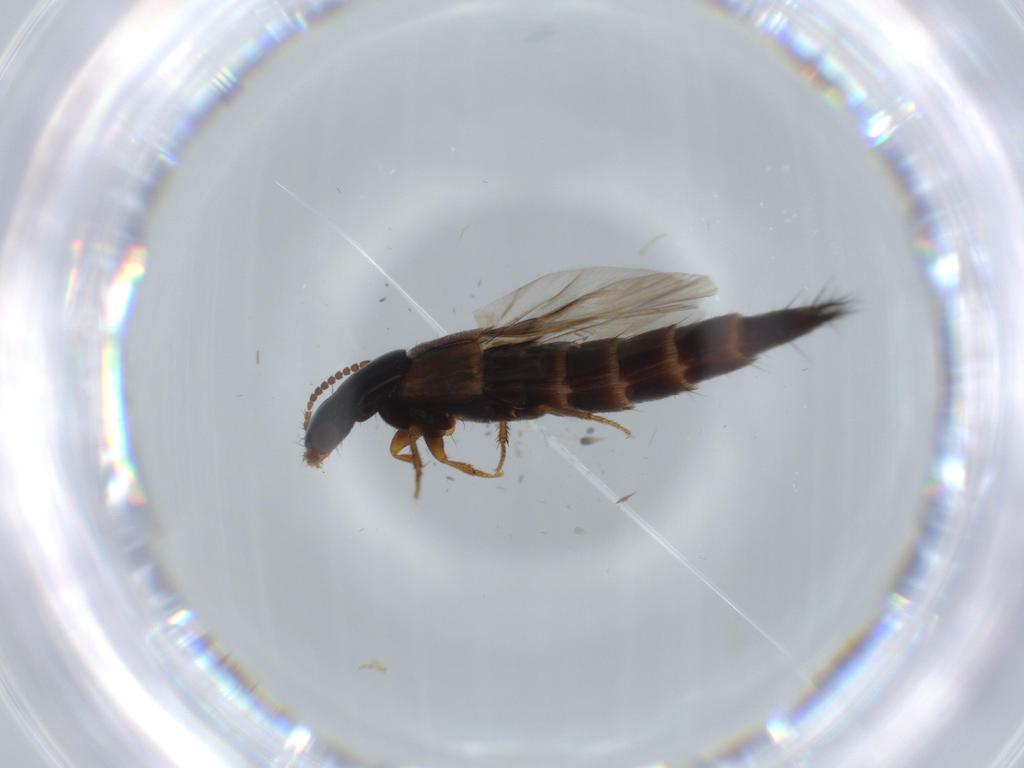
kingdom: Animalia
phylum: Arthropoda
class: Insecta
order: Coleoptera
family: Staphylinidae
